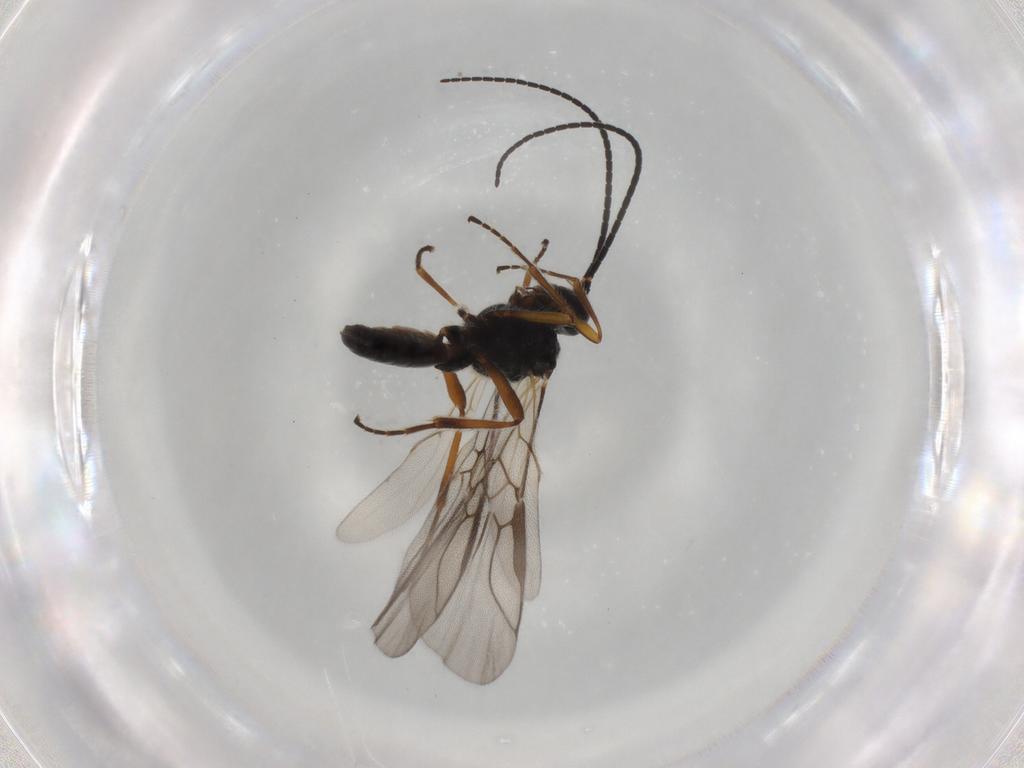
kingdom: Animalia
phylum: Arthropoda
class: Insecta
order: Hymenoptera
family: Braconidae
